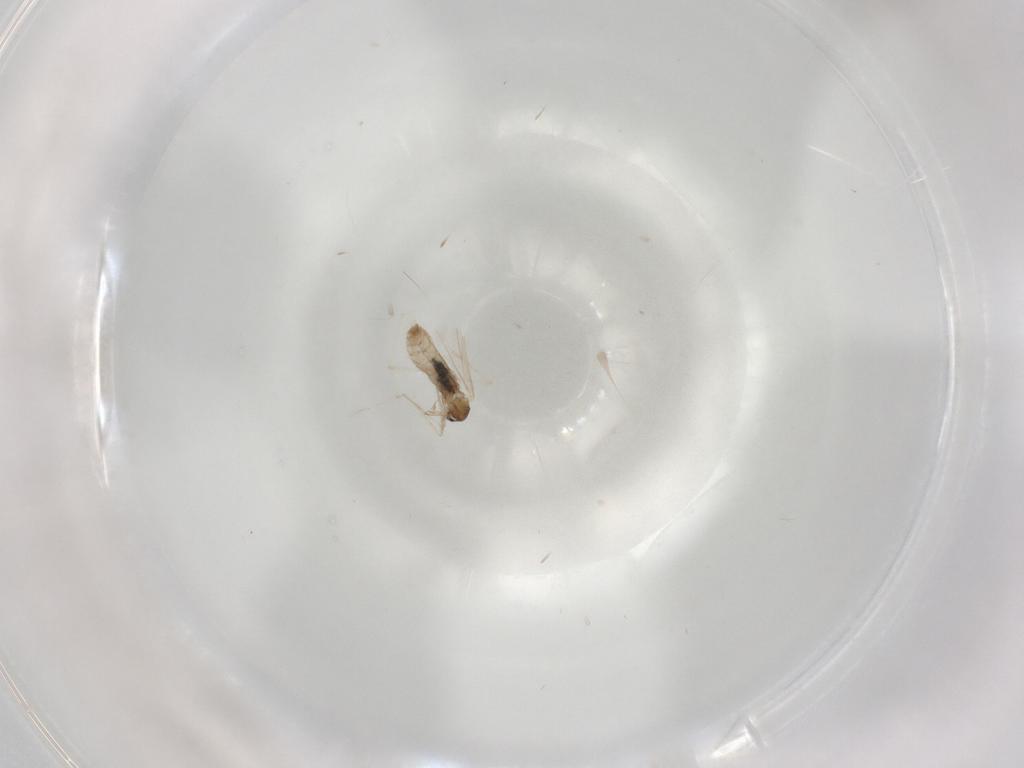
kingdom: Animalia
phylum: Arthropoda
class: Insecta
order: Diptera
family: Cecidomyiidae
